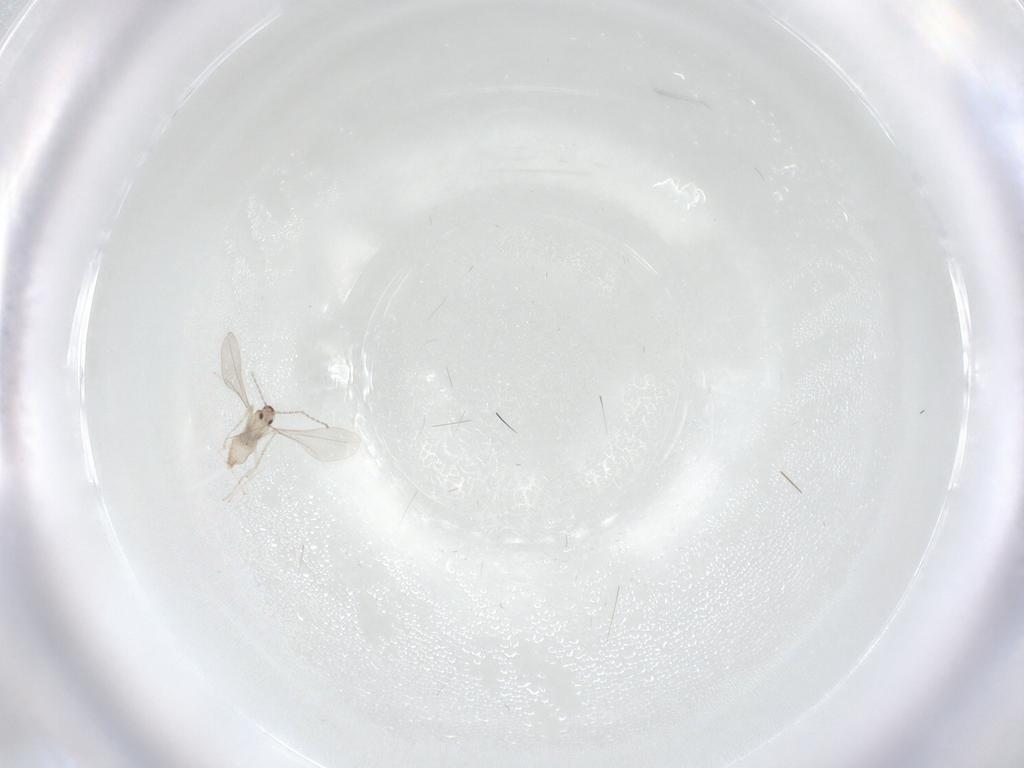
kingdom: Animalia
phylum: Arthropoda
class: Insecta
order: Diptera
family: Cecidomyiidae
